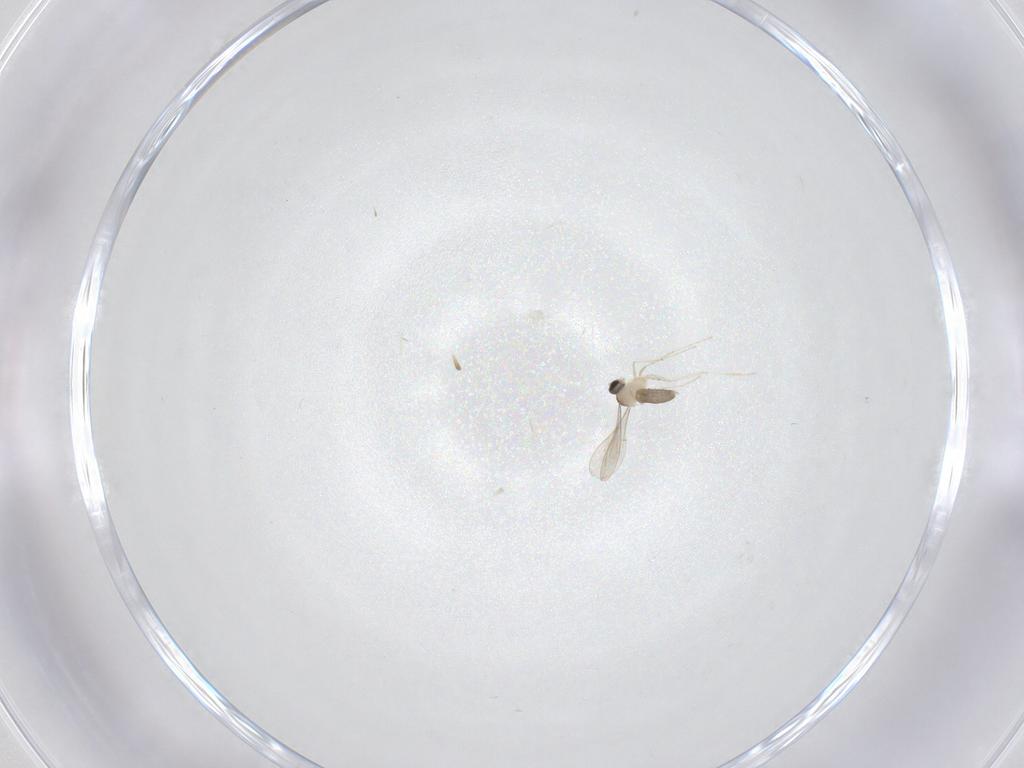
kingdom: Animalia
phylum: Arthropoda
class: Insecta
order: Diptera
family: Cecidomyiidae
